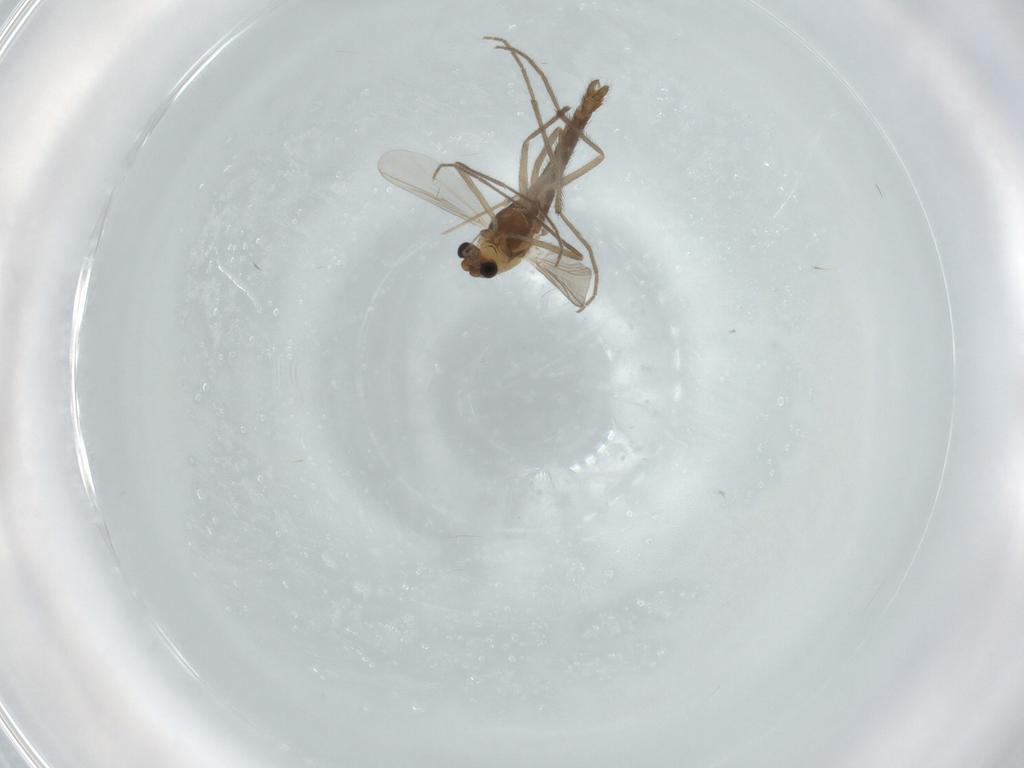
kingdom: Animalia
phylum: Arthropoda
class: Insecta
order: Diptera
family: Chironomidae
